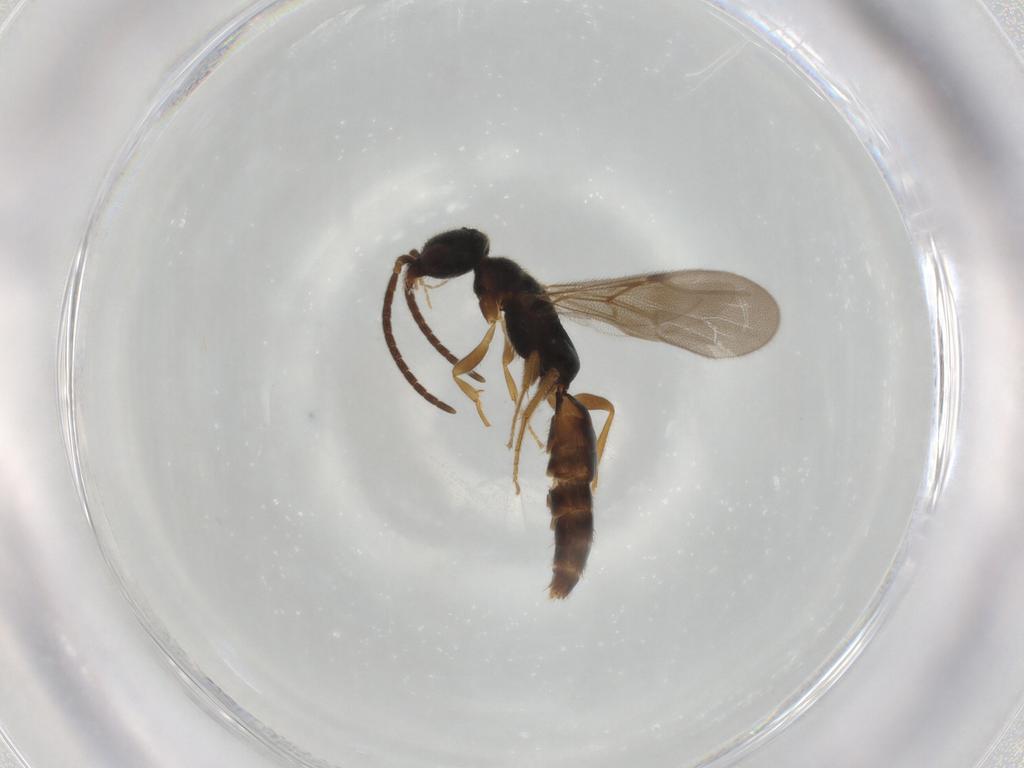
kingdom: Animalia
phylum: Arthropoda
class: Insecta
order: Hymenoptera
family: Bethylidae
